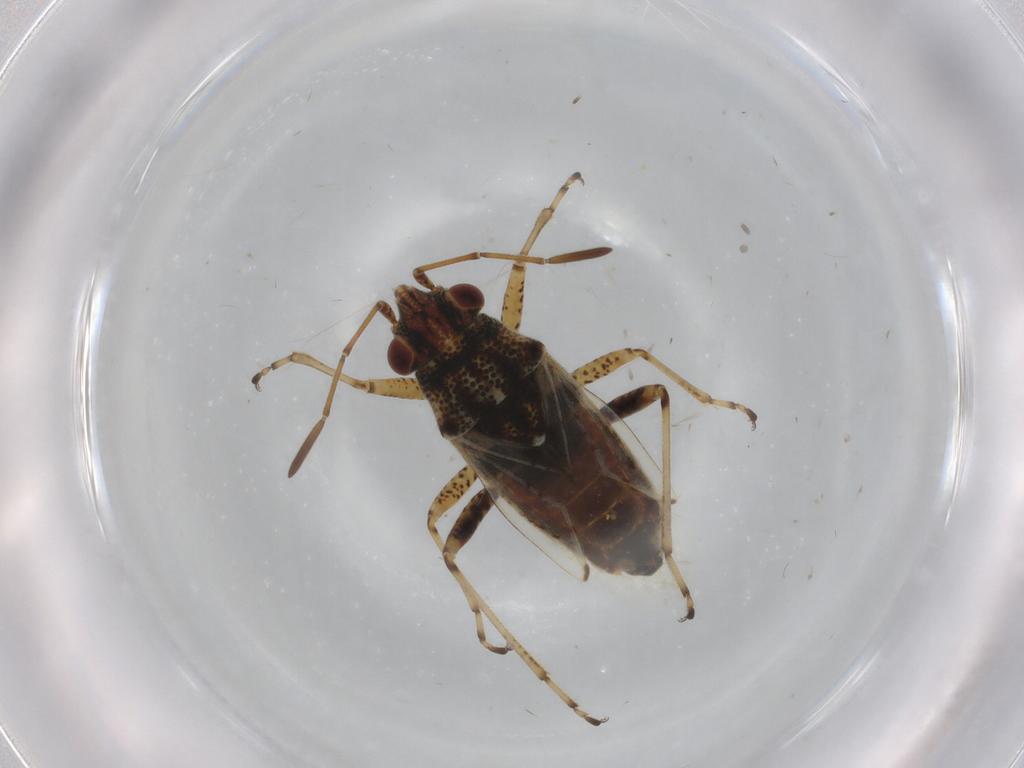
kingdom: Animalia
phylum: Arthropoda
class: Insecta
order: Hemiptera
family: Lygaeidae
